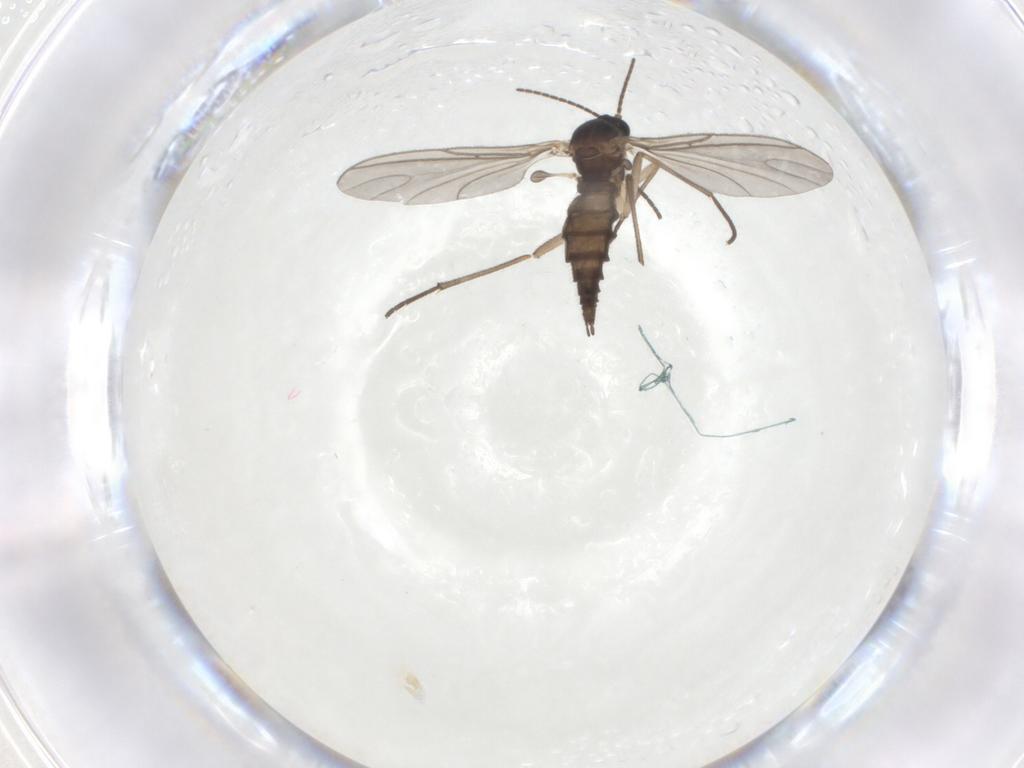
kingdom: Animalia
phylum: Arthropoda
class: Insecta
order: Diptera
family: Sciaridae
